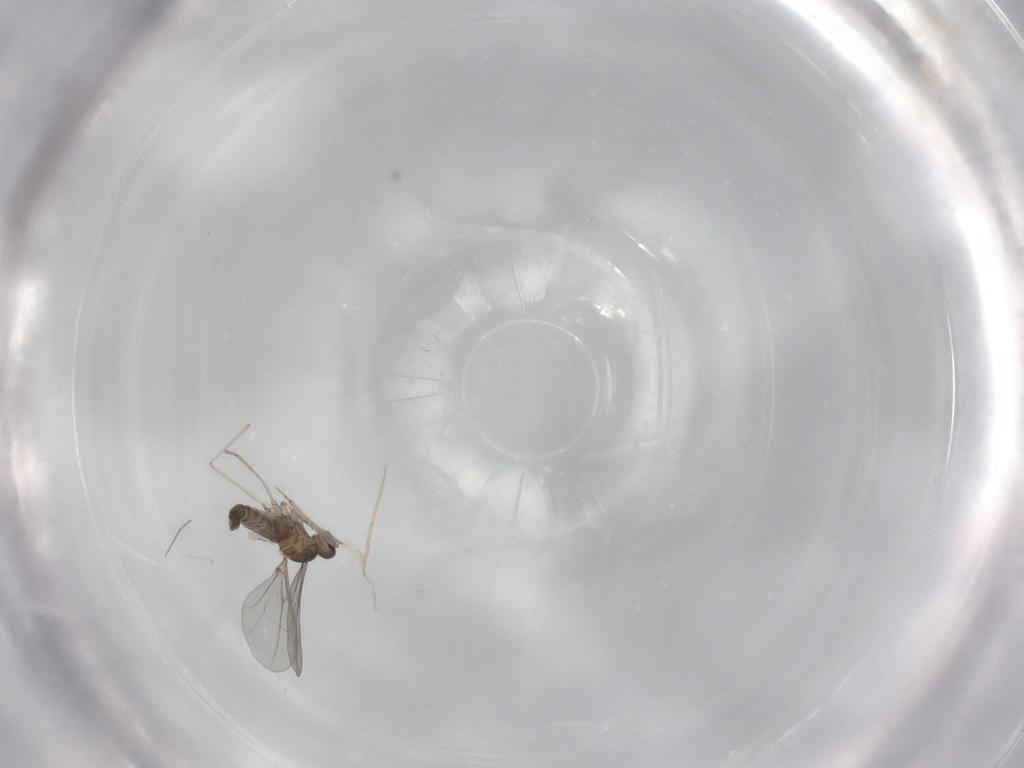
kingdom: Animalia
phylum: Arthropoda
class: Insecta
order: Diptera
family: Cecidomyiidae
